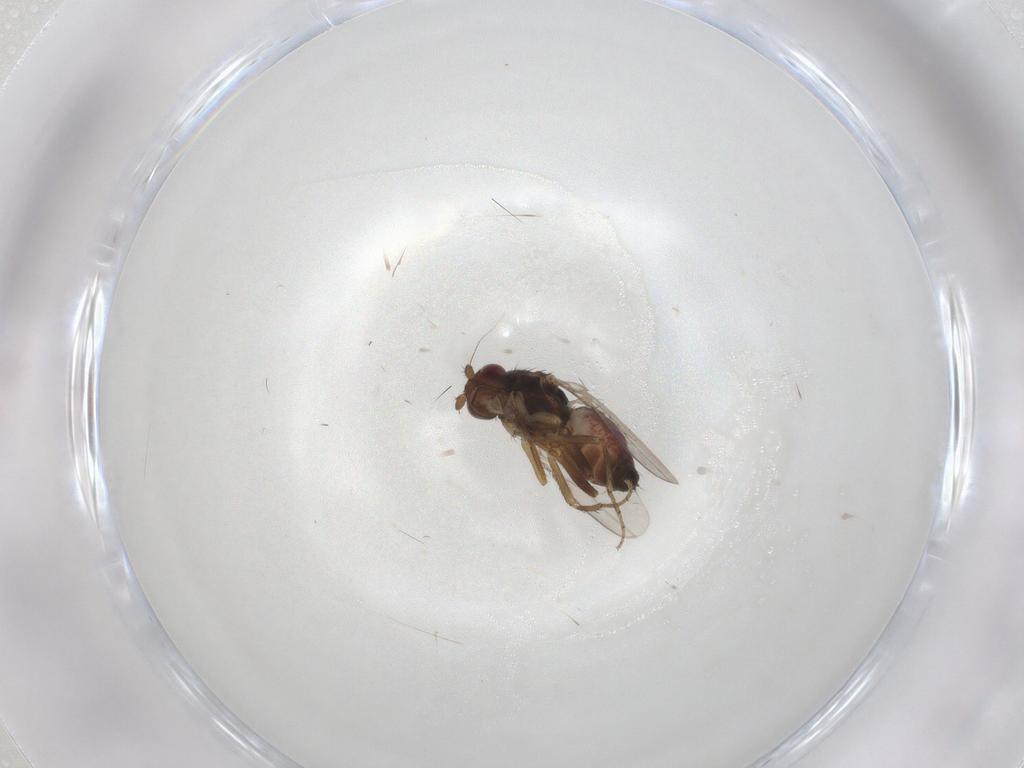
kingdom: Animalia
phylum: Arthropoda
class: Insecta
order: Diptera
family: Sphaeroceridae
